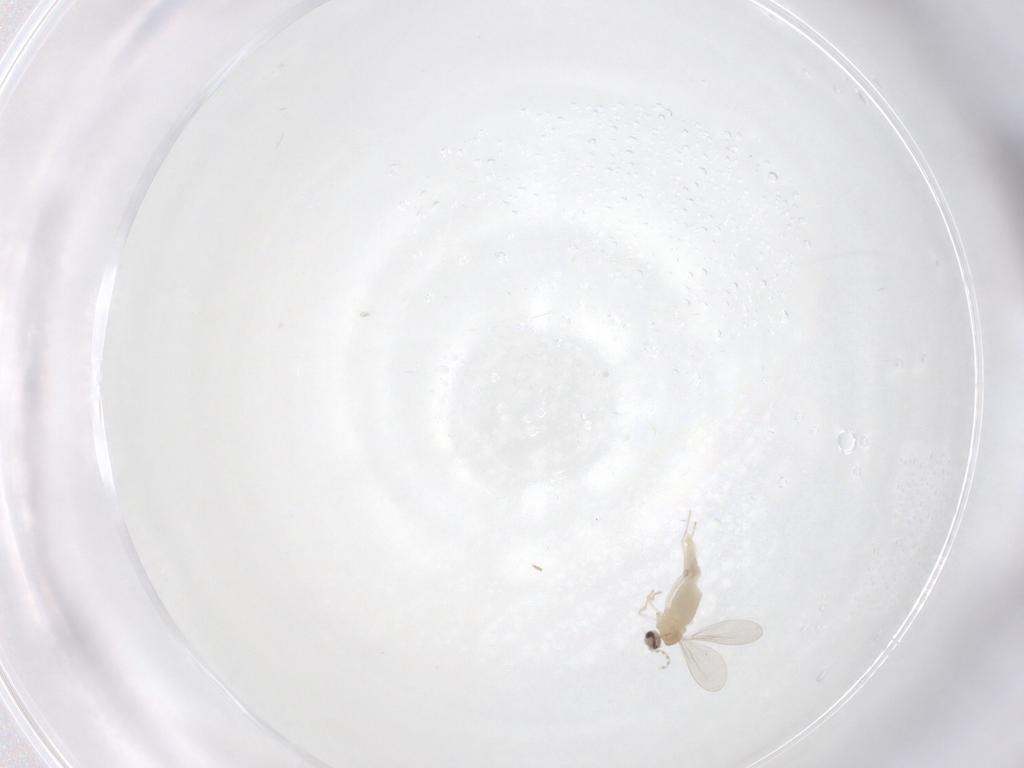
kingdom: Animalia
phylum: Arthropoda
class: Insecta
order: Diptera
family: Cecidomyiidae
